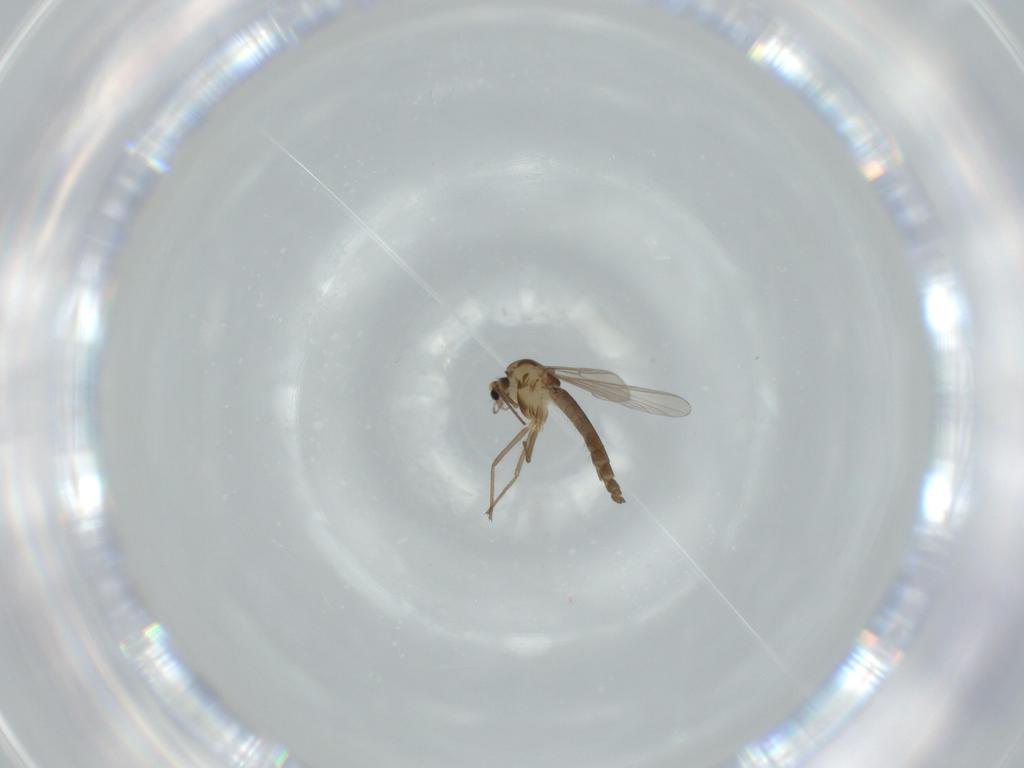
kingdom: Animalia
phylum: Arthropoda
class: Insecta
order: Diptera
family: Chironomidae
